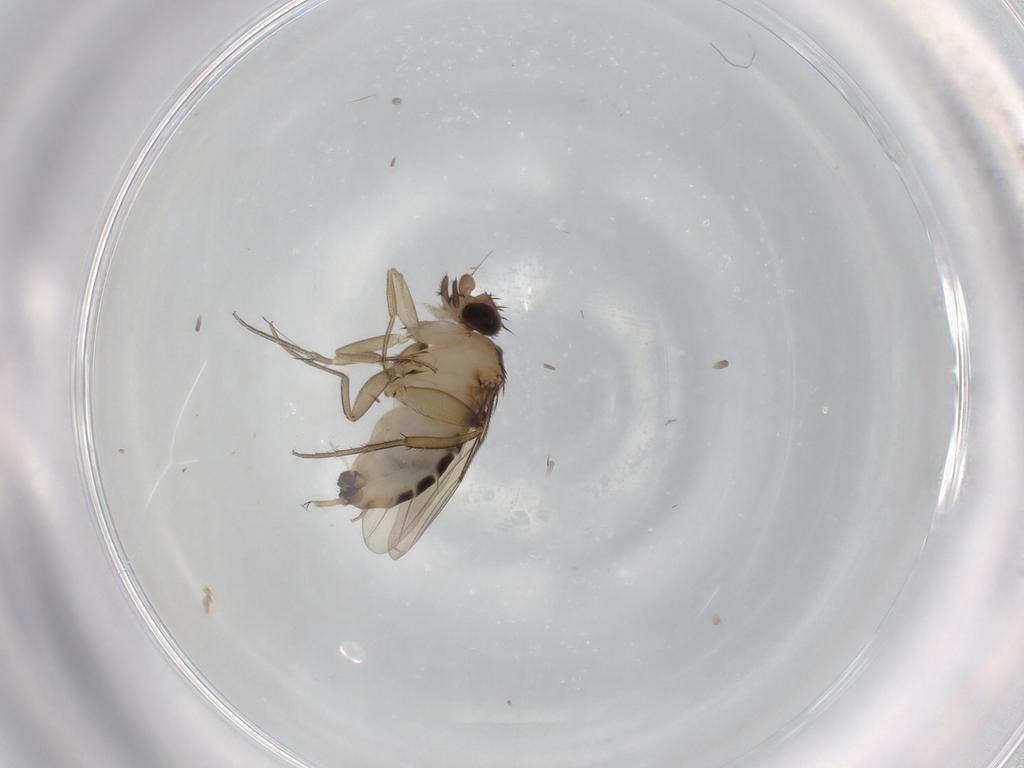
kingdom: Animalia
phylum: Arthropoda
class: Insecta
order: Diptera
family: Phoridae
